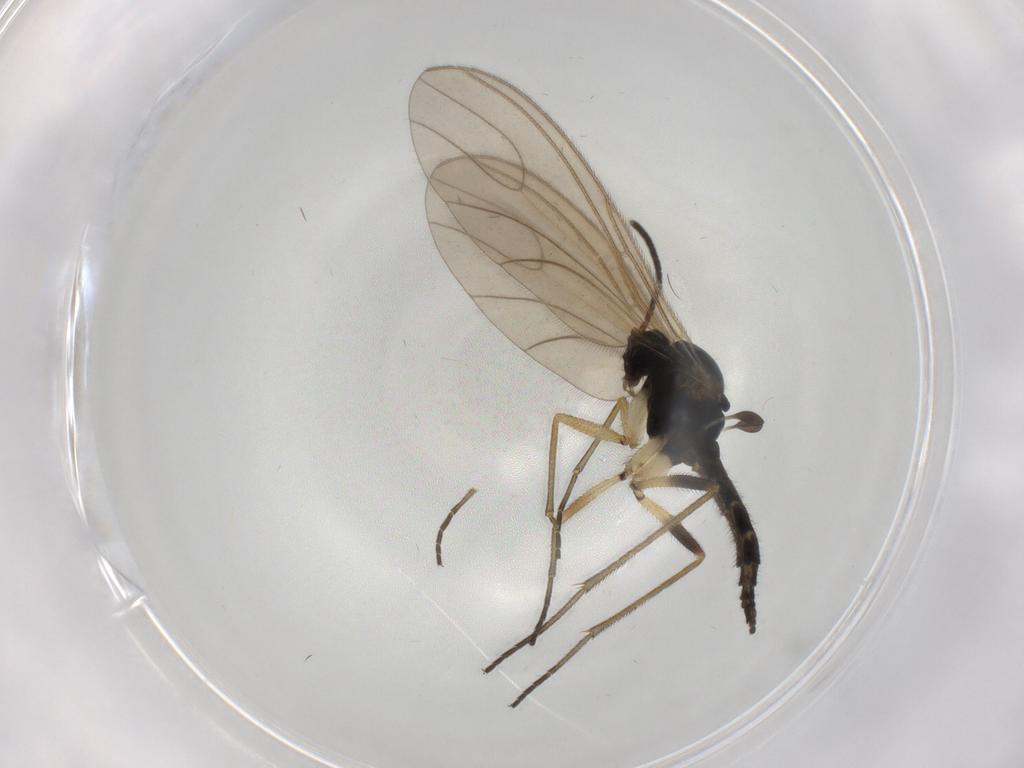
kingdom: Animalia
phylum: Arthropoda
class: Insecta
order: Diptera
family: Sciaridae
